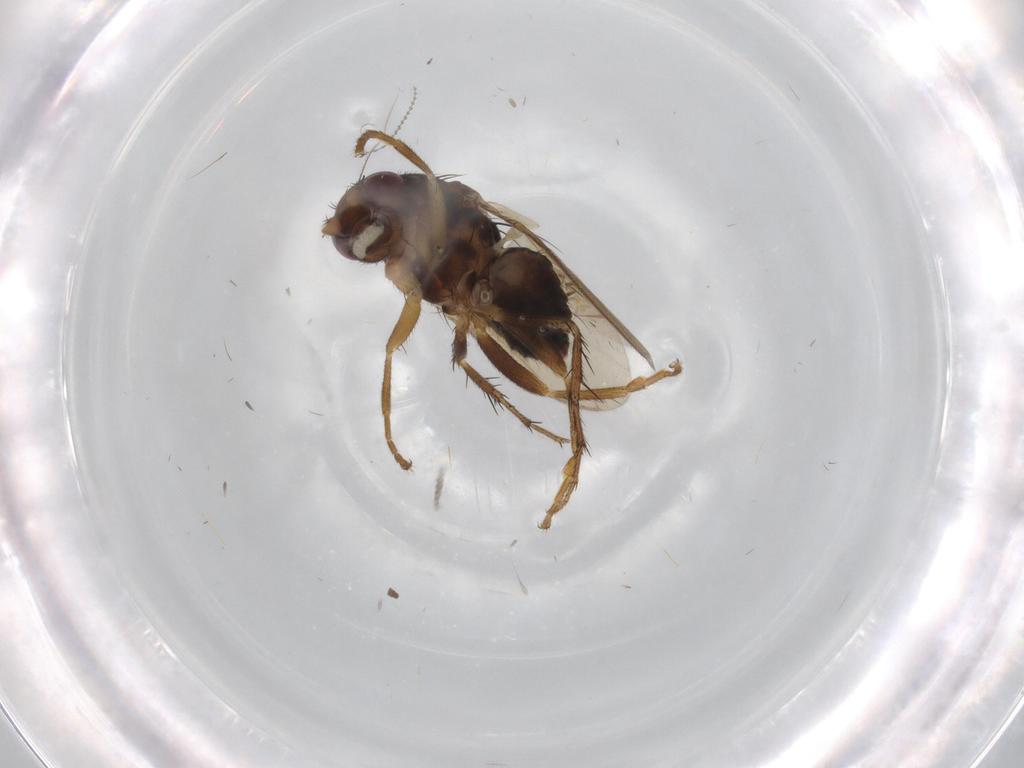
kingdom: Animalia
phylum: Arthropoda
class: Insecta
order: Diptera
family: Sphaeroceridae
